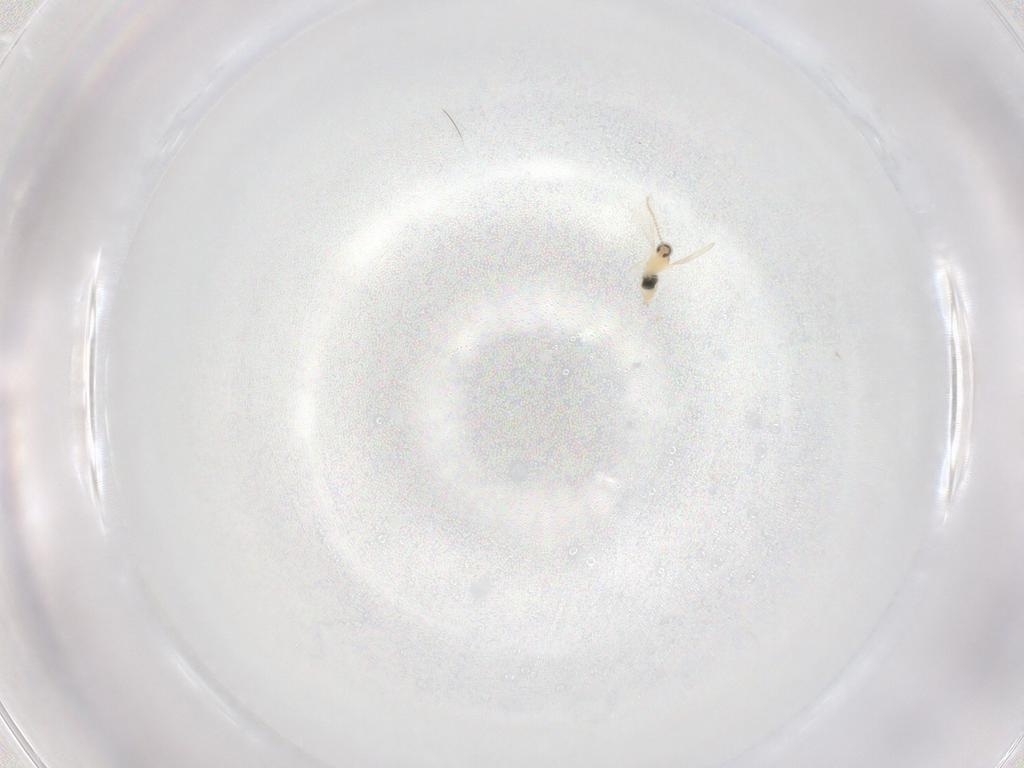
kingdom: Animalia
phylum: Arthropoda
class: Insecta
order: Diptera
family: Cecidomyiidae
